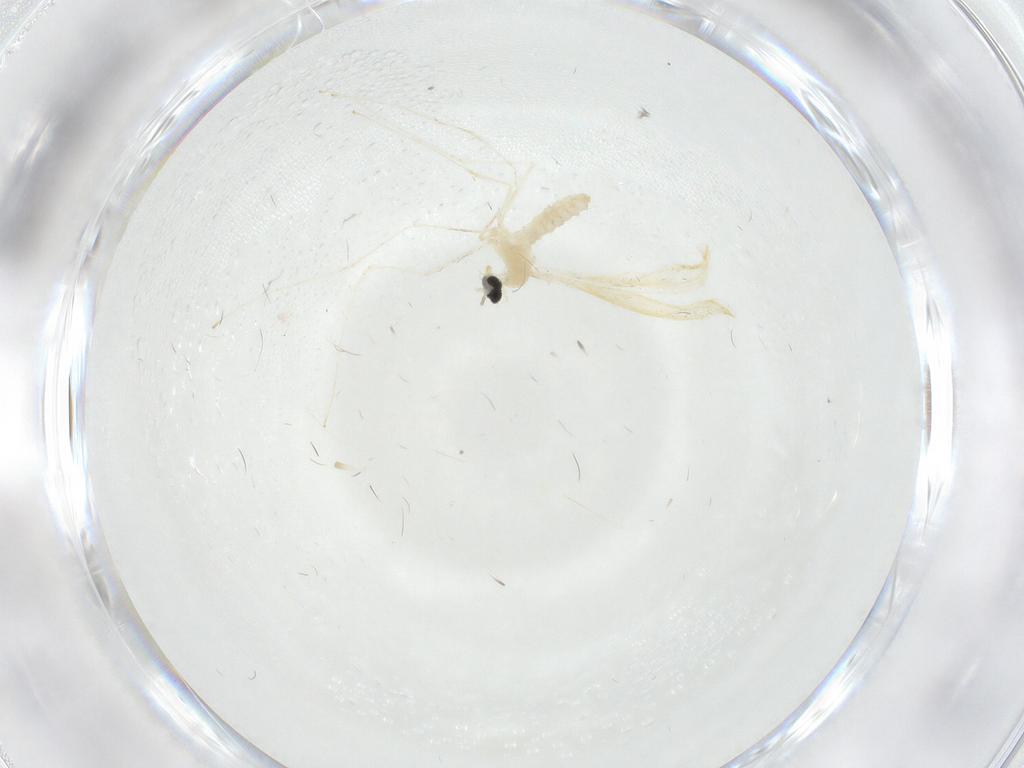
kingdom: Animalia
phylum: Arthropoda
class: Insecta
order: Diptera
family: Cecidomyiidae
